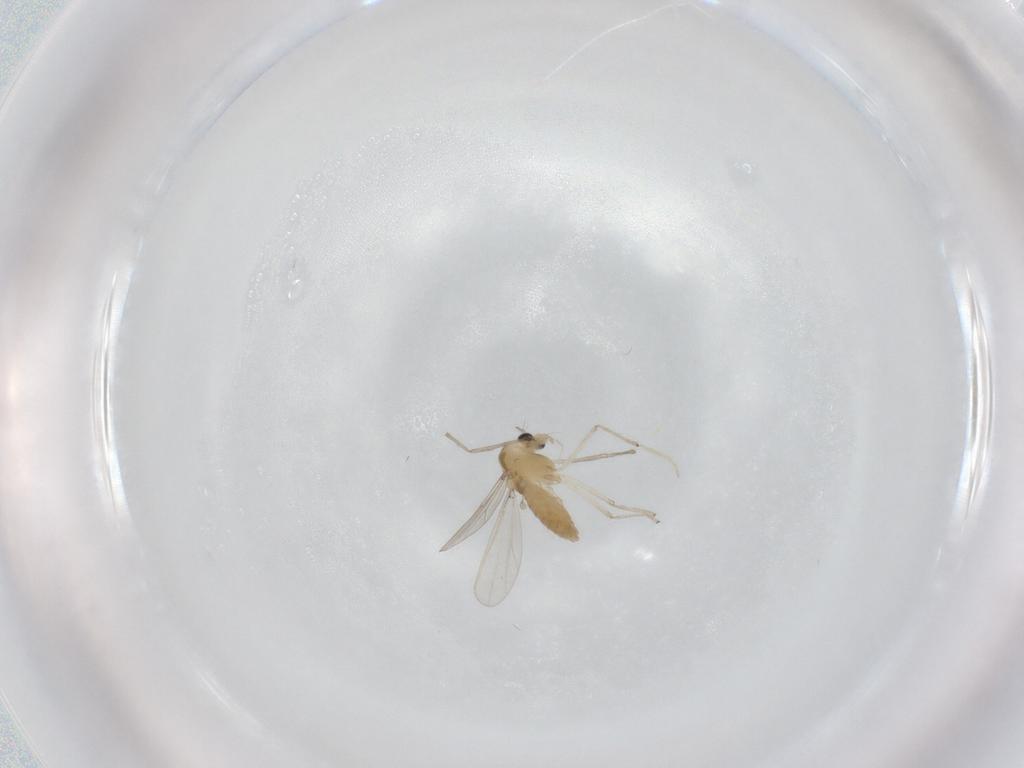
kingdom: Animalia
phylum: Arthropoda
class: Insecta
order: Diptera
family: Chironomidae
